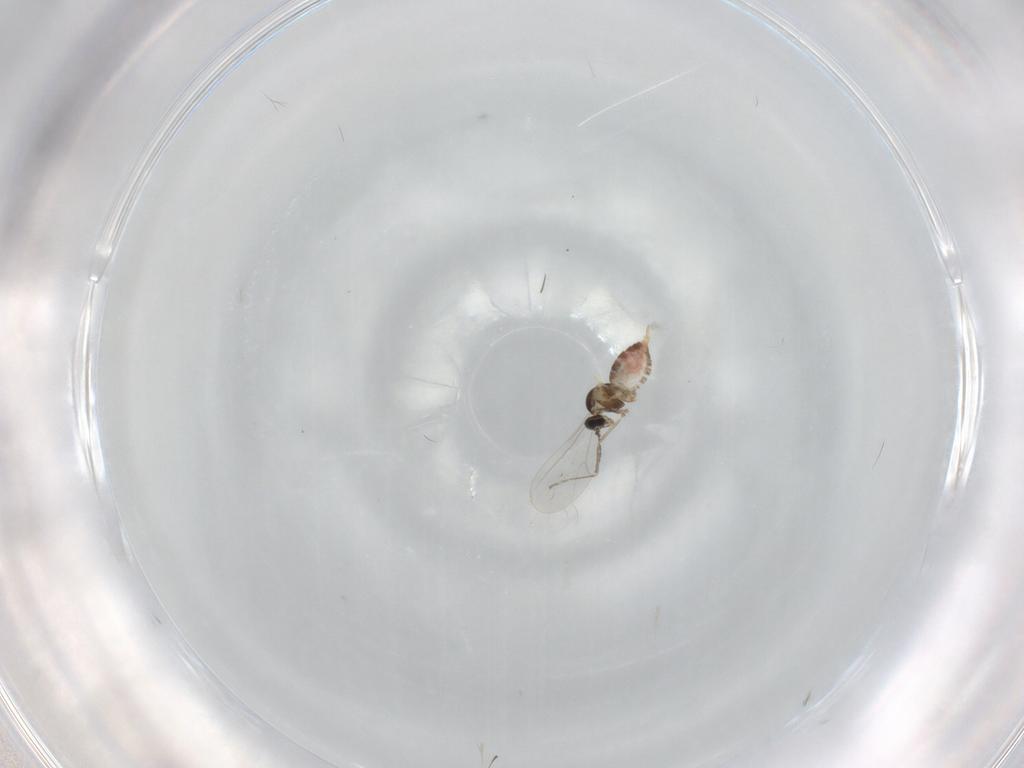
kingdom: Animalia
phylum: Arthropoda
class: Insecta
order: Diptera
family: Cecidomyiidae
